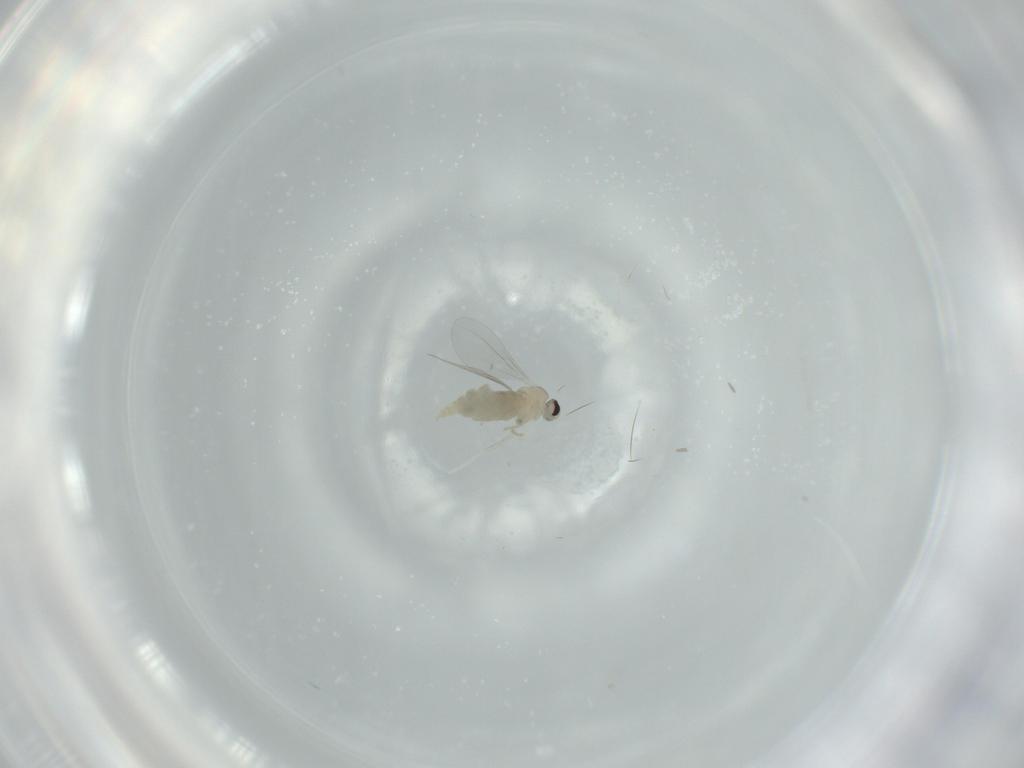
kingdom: Animalia
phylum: Arthropoda
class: Insecta
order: Diptera
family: Cecidomyiidae
